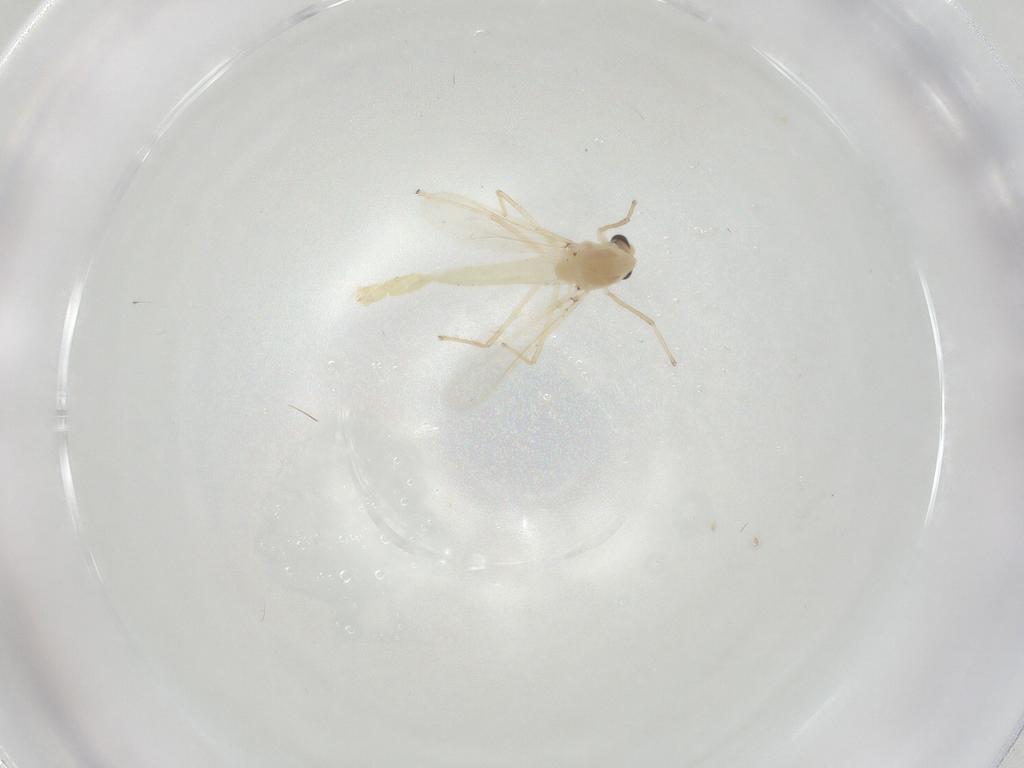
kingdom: Animalia
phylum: Arthropoda
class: Insecta
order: Diptera
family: Chironomidae
